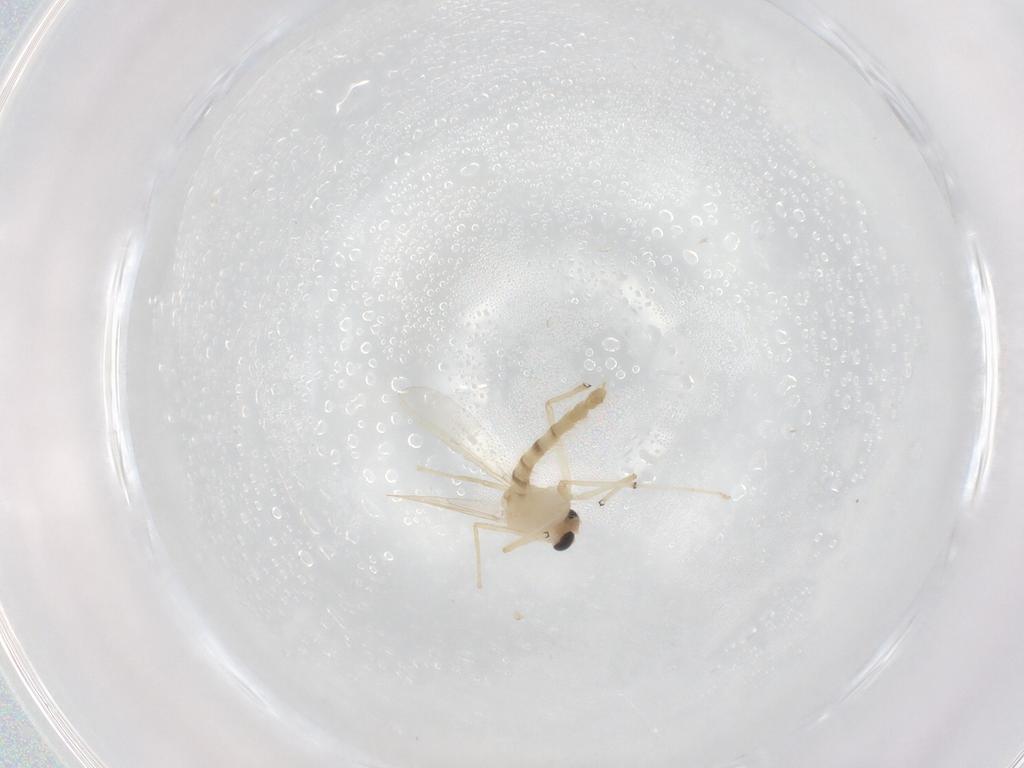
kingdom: Animalia
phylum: Arthropoda
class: Insecta
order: Diptera
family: Chironomidae
